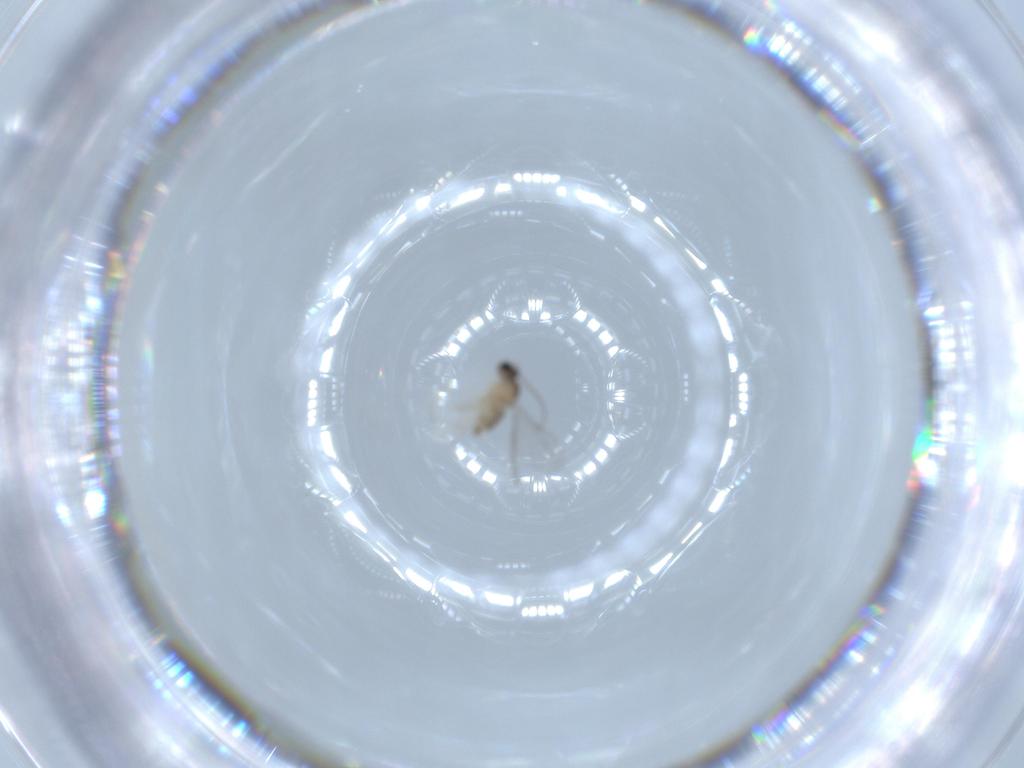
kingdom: Animalia
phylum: Arthropoda
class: Insecta
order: Diptera
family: Cecidomyiidae
